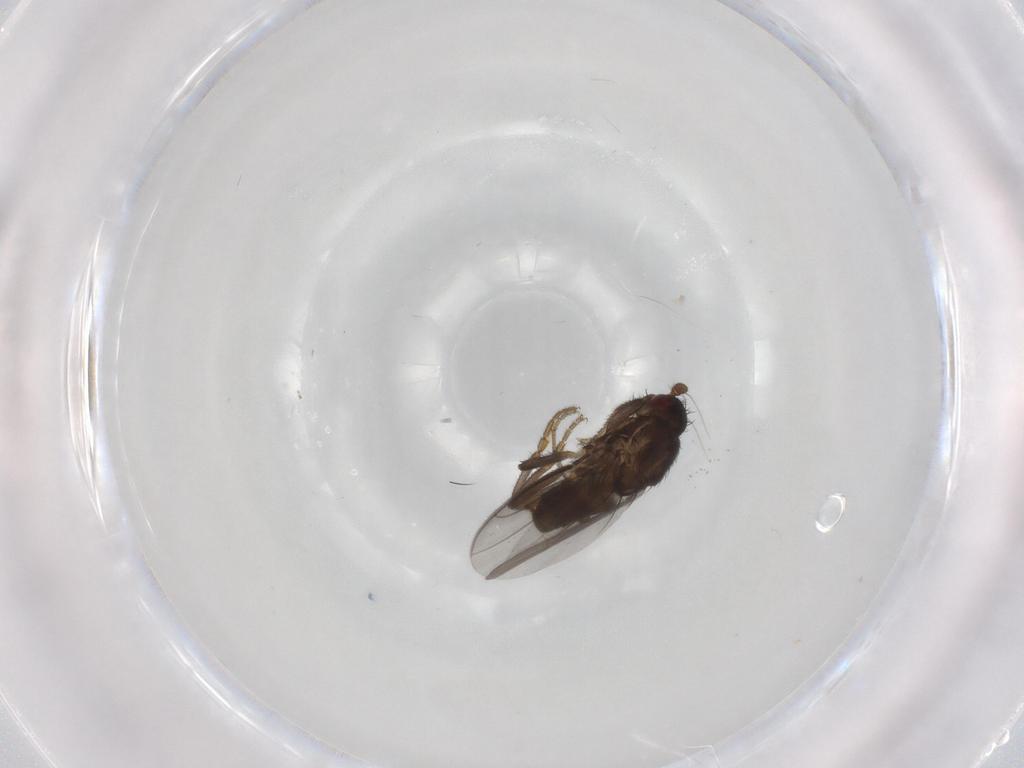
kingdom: Animalia
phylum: Arthropoda
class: Insecta
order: Diptera
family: Sphaeroceridae
